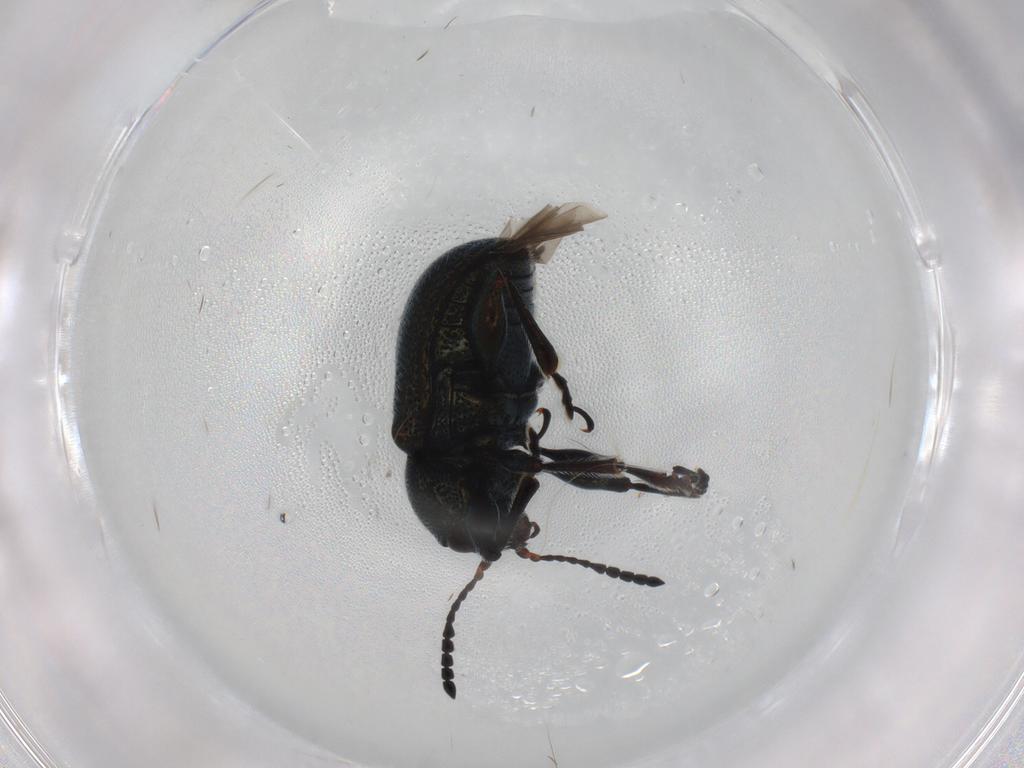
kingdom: Animalia
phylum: Arthropoda
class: Insecta
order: Coleoptera
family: Chrysomelidae
